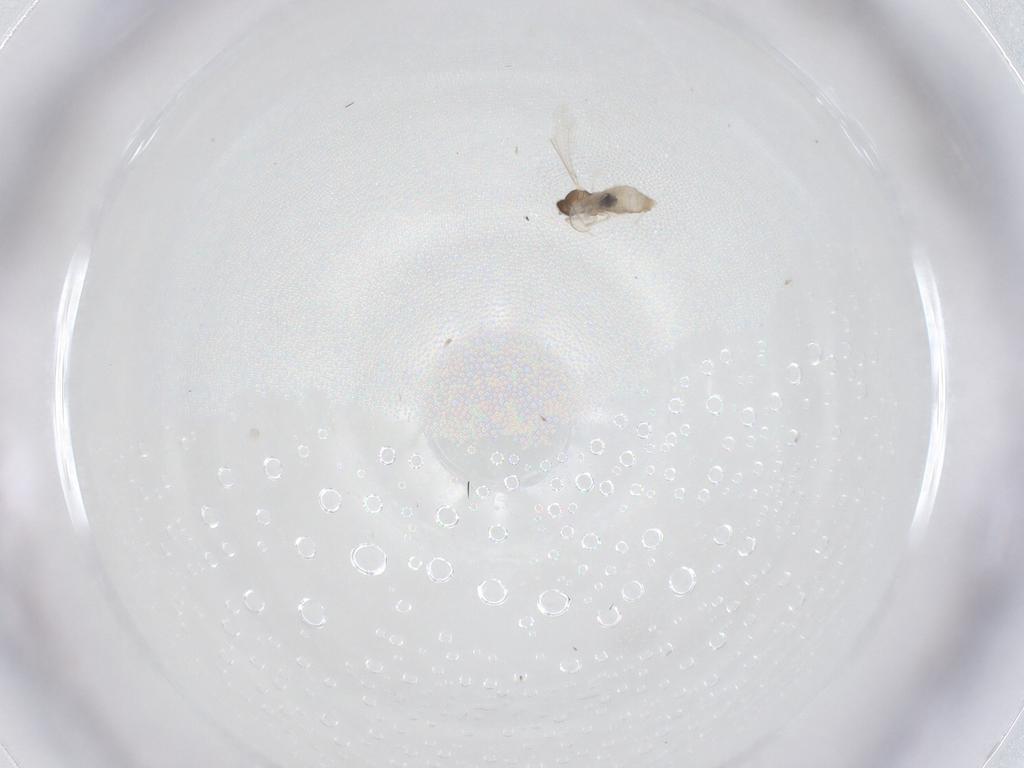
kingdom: Animalia
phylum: Arthropoda
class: Insecta
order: Diptera
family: Cecidomyiidae
